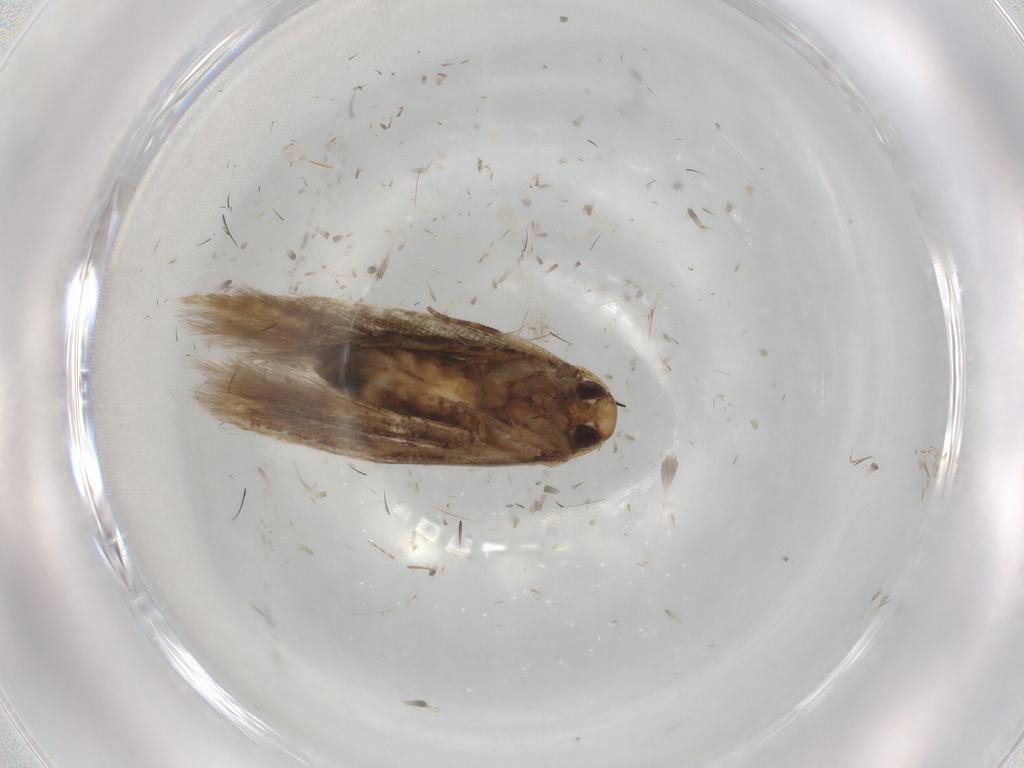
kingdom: Animalia
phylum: Arthropoda
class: Insecta
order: Lepidoptera
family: Cosmopterigidae
